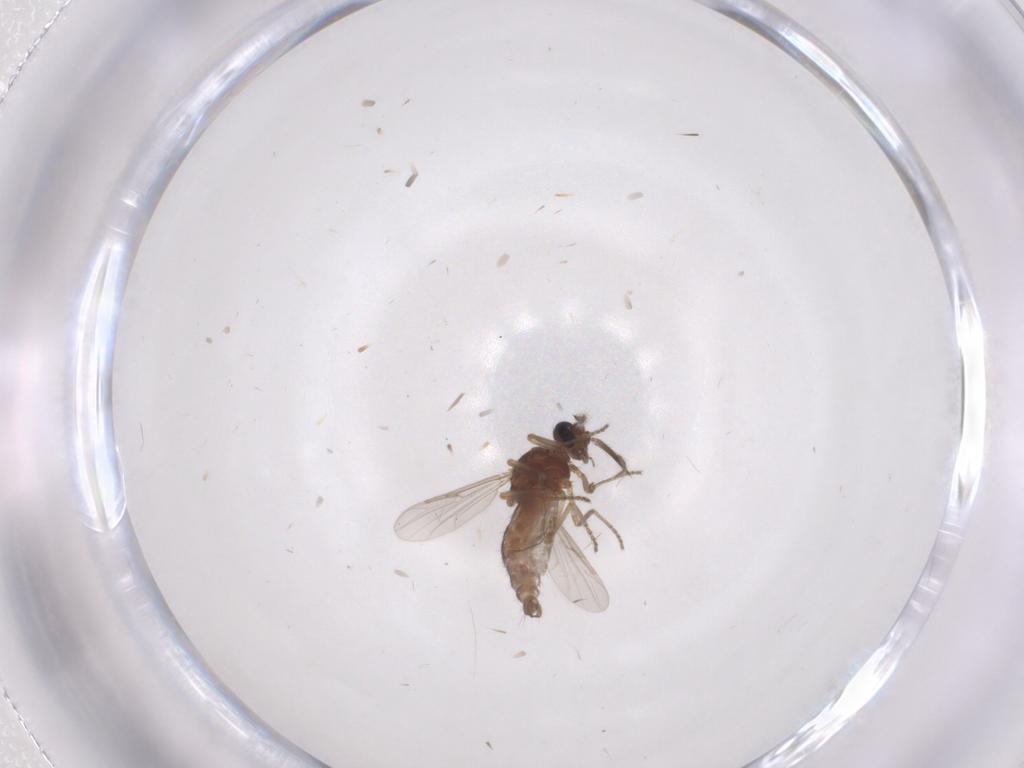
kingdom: Animalia
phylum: Arthropoda
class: Insecta
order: Diptera
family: Ceratopogonidae
